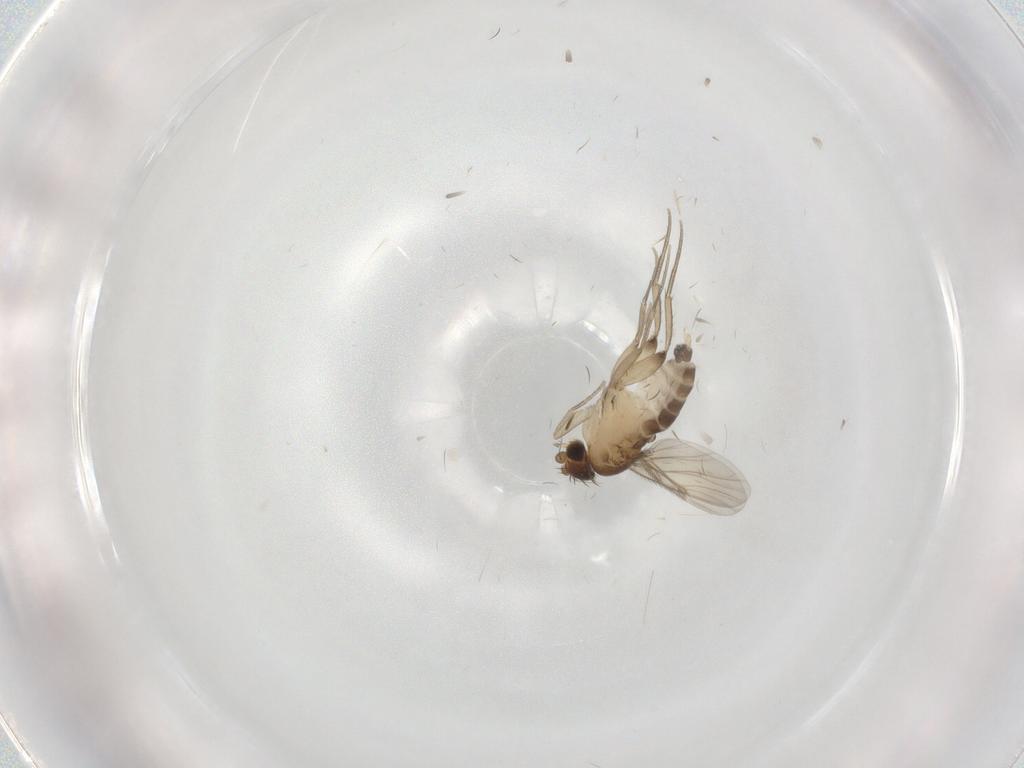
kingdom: Animalia
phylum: Arthropoda
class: Insecta
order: Diptera
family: Phoridae
